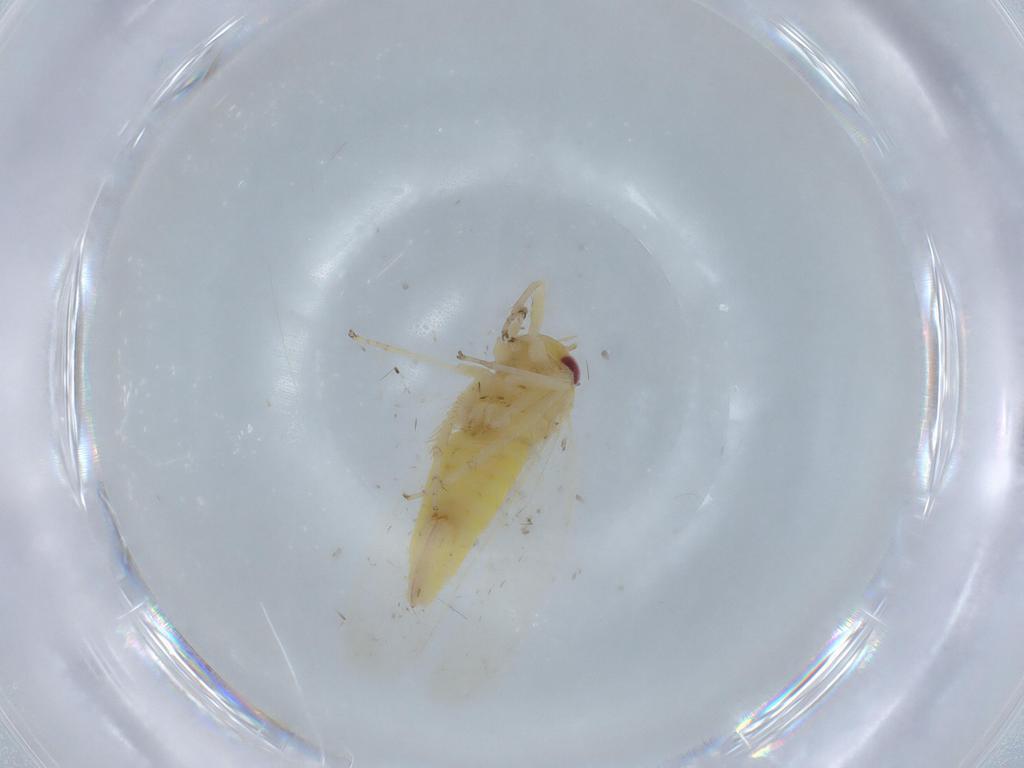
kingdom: Animalia
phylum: Arthropoda
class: Insecta
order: Hemiptera
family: Cicadellidae
